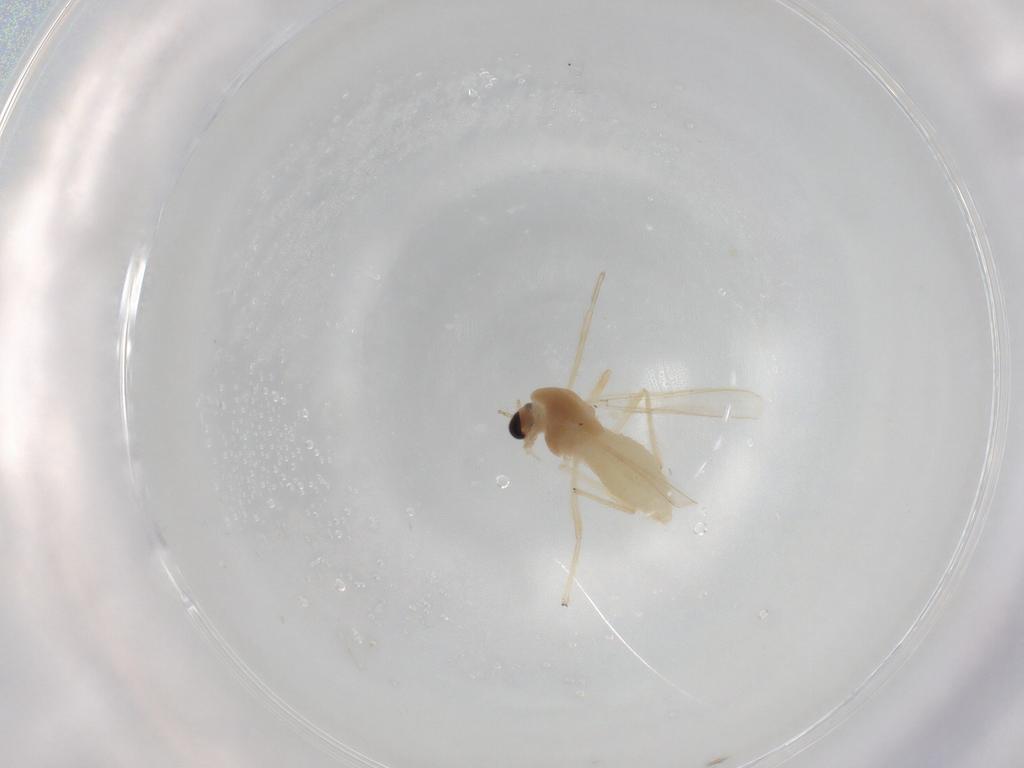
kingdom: Animalia
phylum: Arthropoda
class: Insecta
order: Diptera
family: Chironomidae
